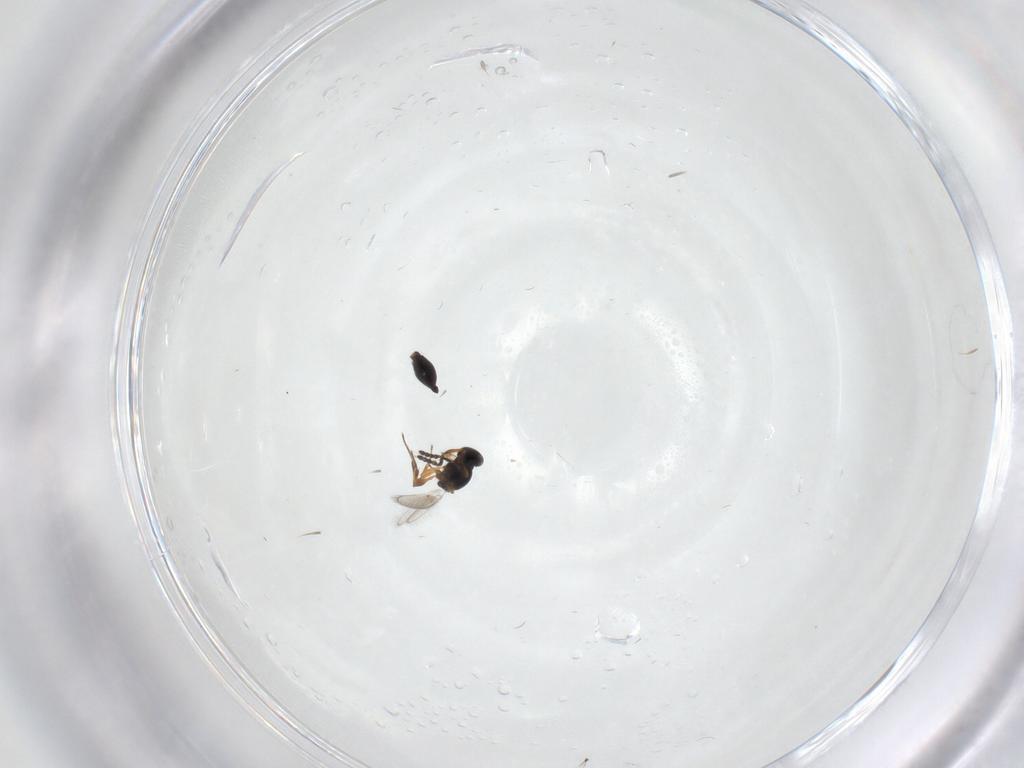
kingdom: Animalia
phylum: Arthropoda
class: Insecta
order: Hymenoptera
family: Platygastridae
